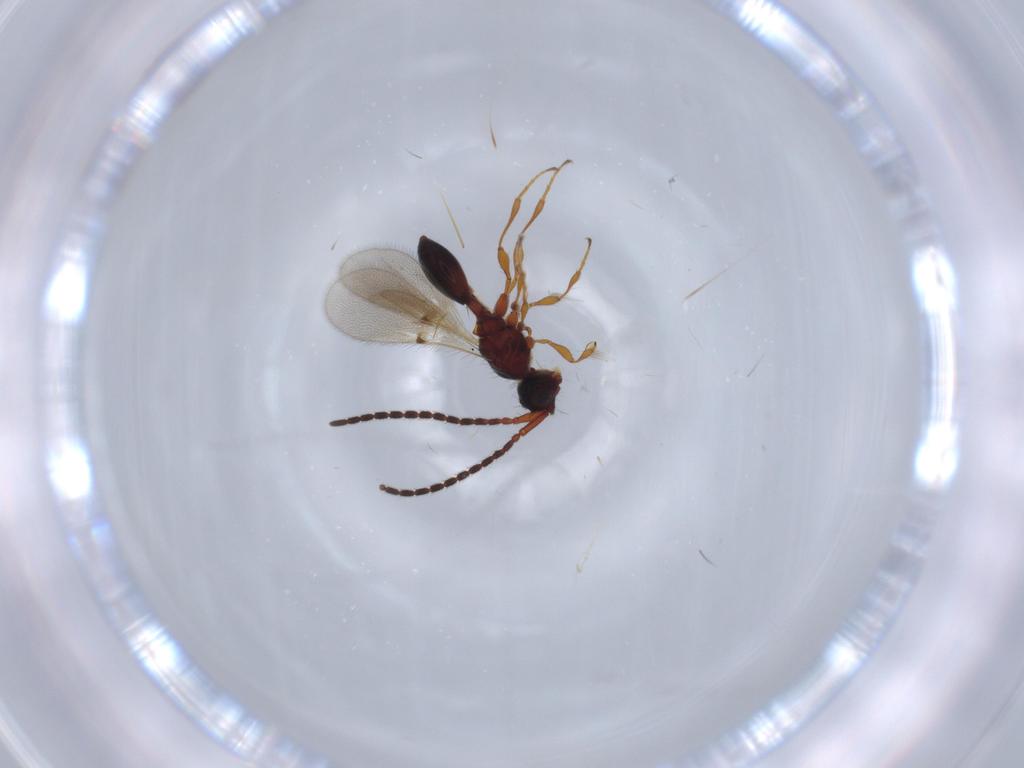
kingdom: Animalia
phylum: Arthropoda
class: Insecta
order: Hymenoptera
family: Diapriidae
